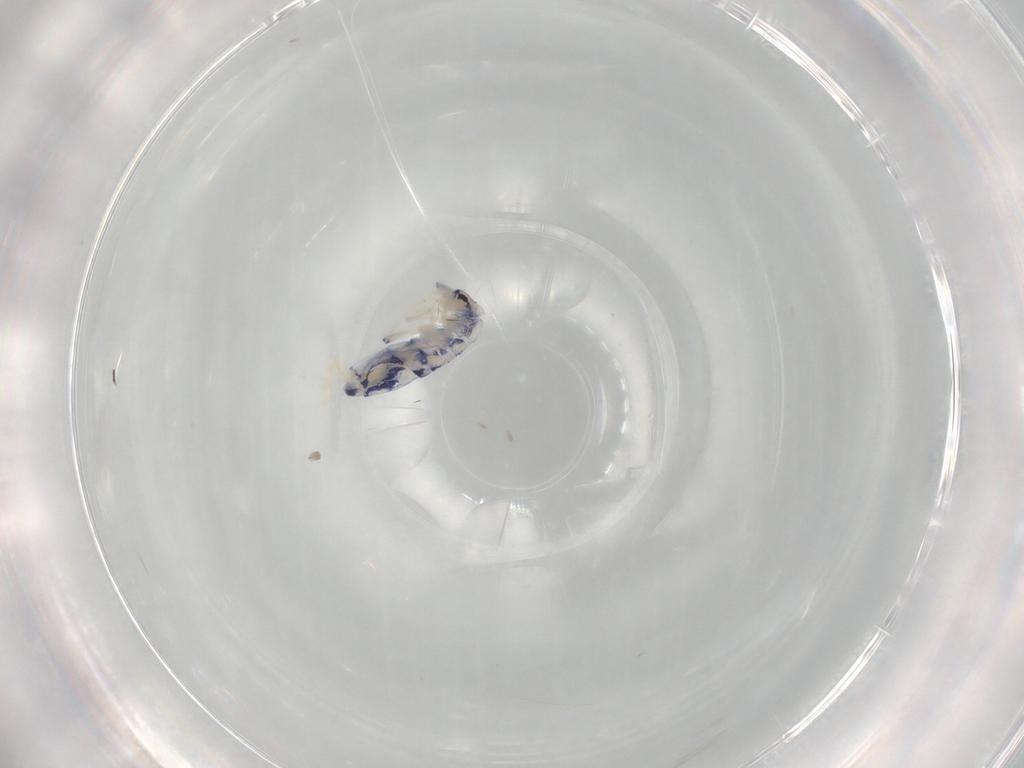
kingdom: Animalia
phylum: Arthropoda
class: Collembola
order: Entomobryomorpha
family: Entomobryidae
